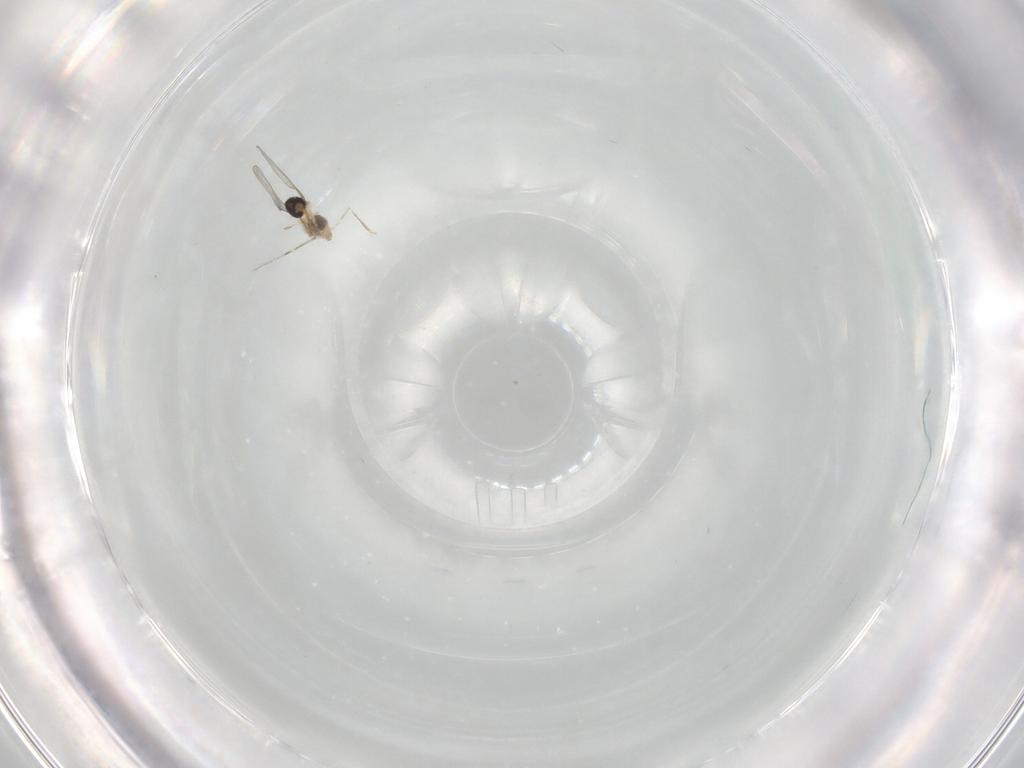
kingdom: Animalia
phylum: Arthropoda
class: Insecta
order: Diptera
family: Cecidomyiidae
